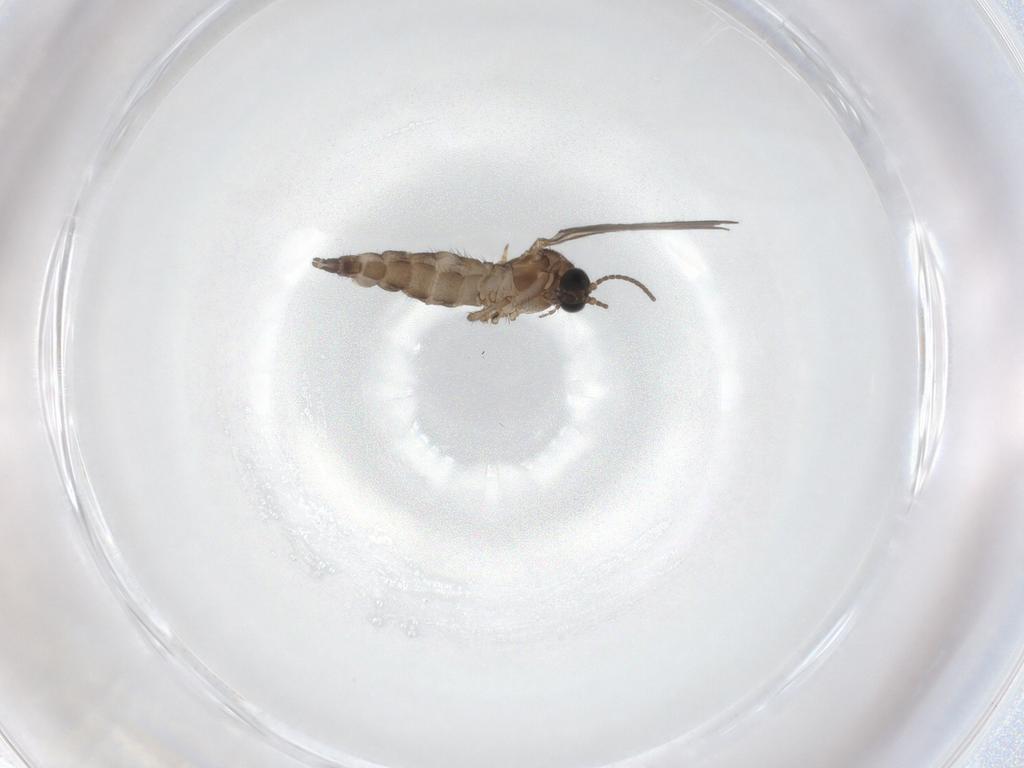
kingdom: Animalia
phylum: Arthropoda
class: Insecta
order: Diptera
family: Sciaridae
